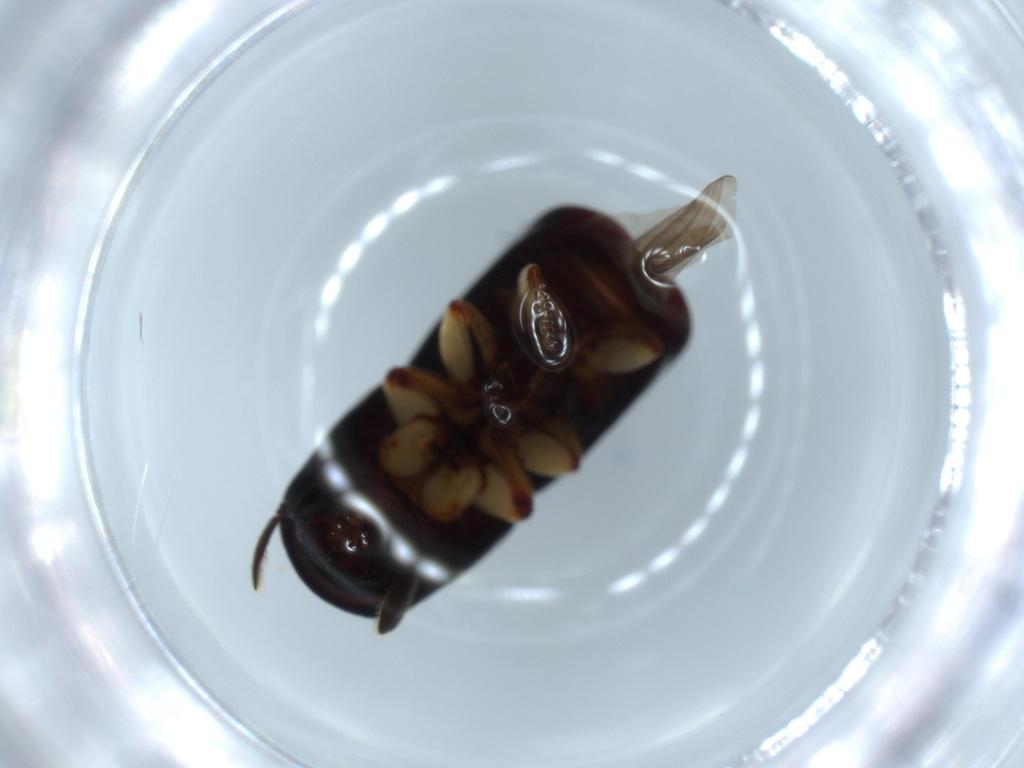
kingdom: Animalia
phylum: Arthropoda
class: Insecta
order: Coleoptera
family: Curculionidae
